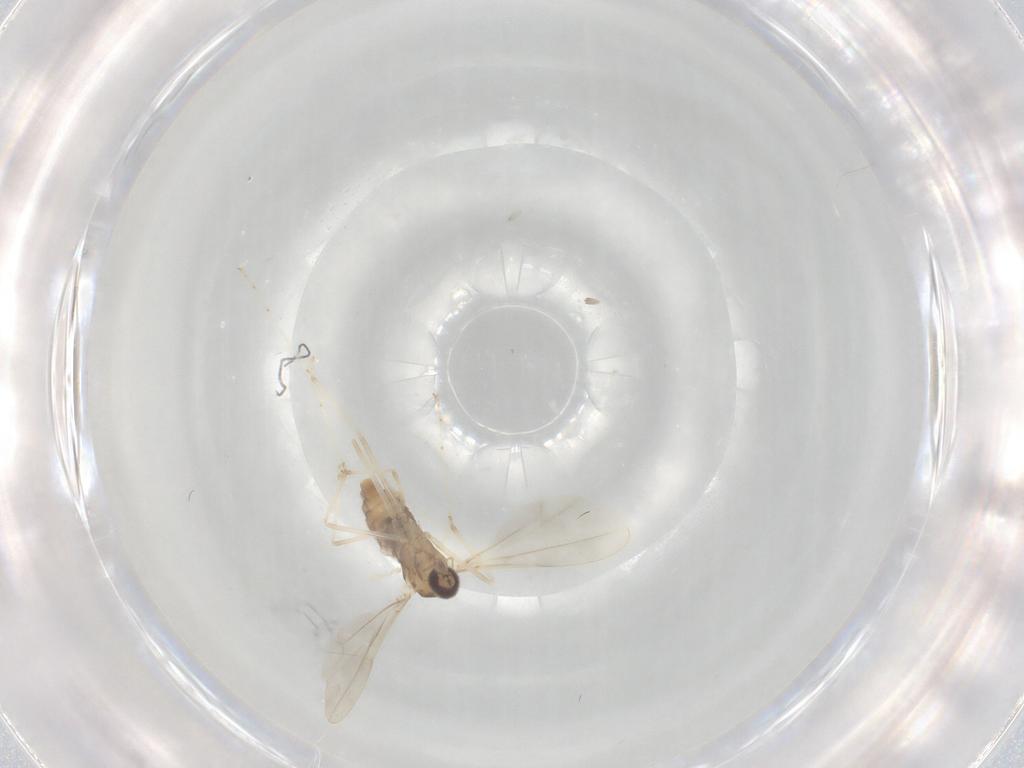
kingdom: Animalia
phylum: Arthropoda
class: Insecta
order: Diptera
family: Cecidomyiidae
